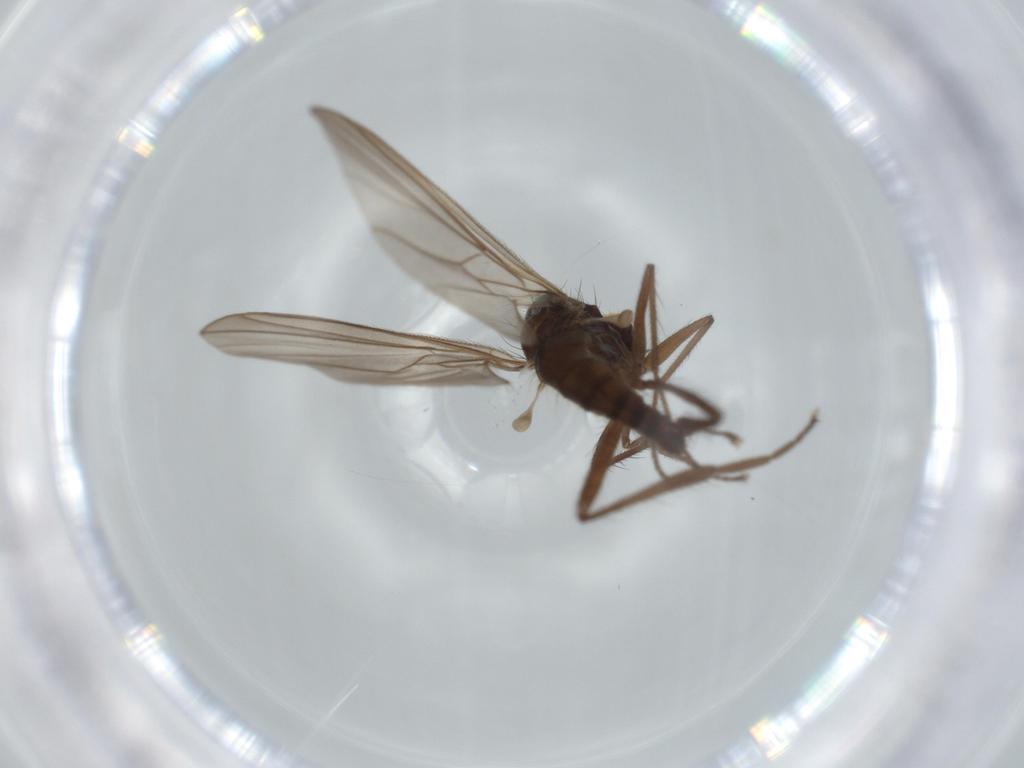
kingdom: Animalia
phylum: Arthropoda
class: Insecta
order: Diptera
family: Hybotidae
